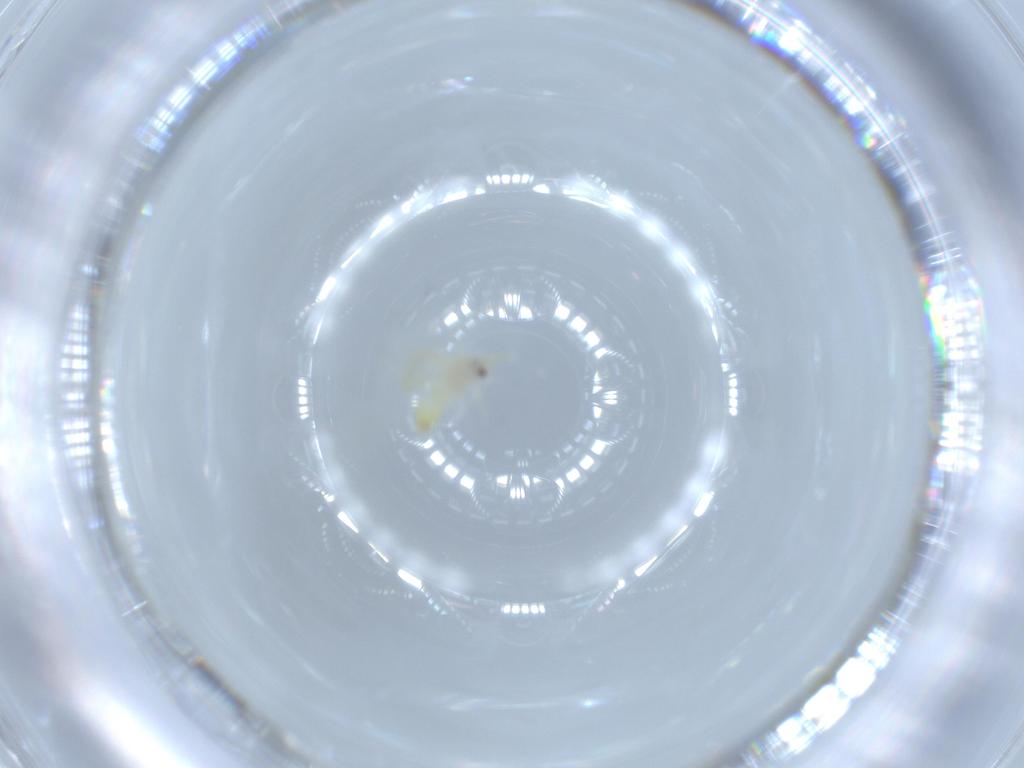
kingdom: Animalia
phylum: Arthropoda
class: Insecta
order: Hemiptera
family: Aleyrodidae
